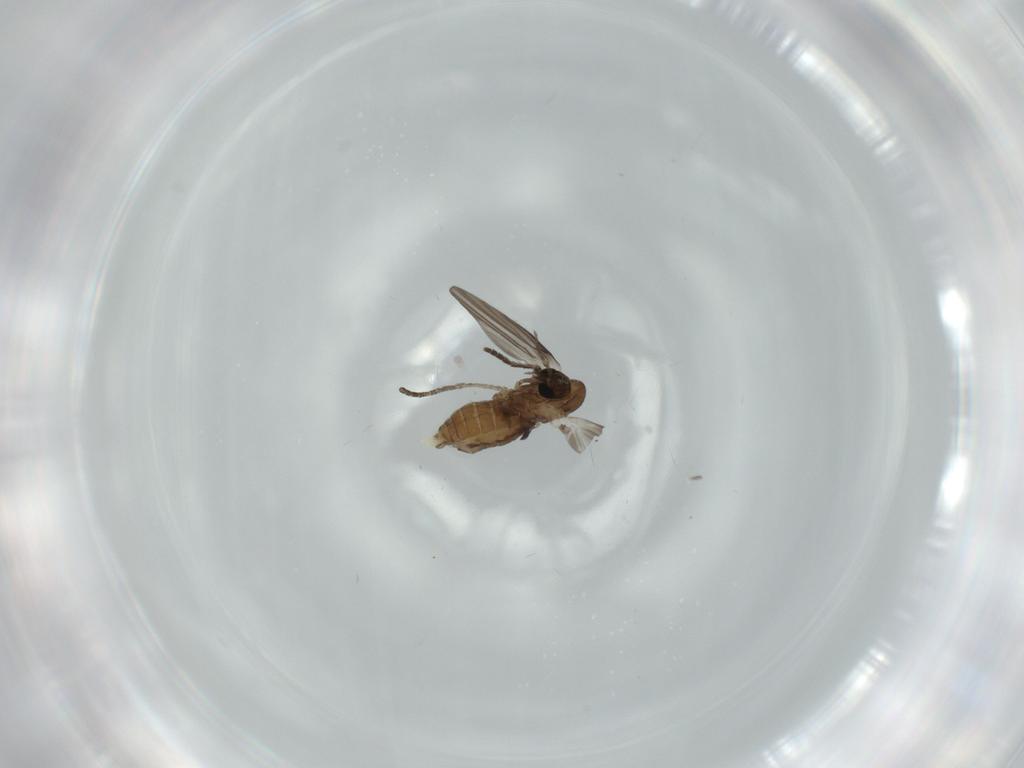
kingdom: Animalia
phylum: Arthropoda
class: Insecta
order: Diptera
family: Psychodidae
